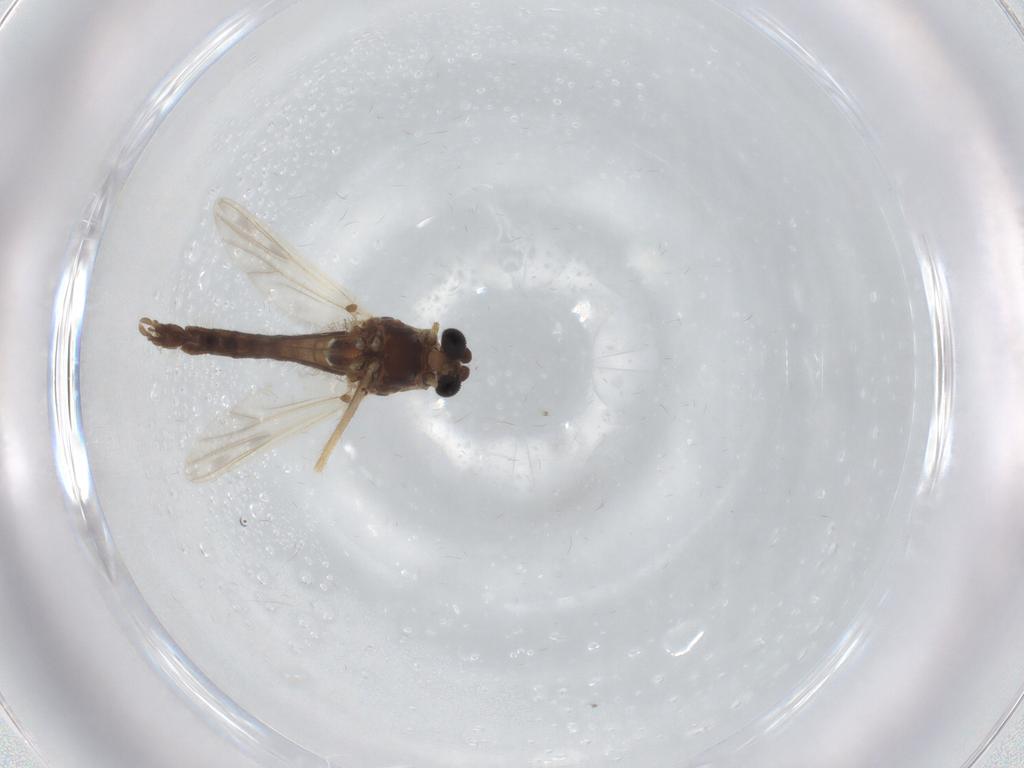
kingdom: Animalia
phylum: Arthropoda
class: Insecta
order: Diptera
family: Chironomidae
